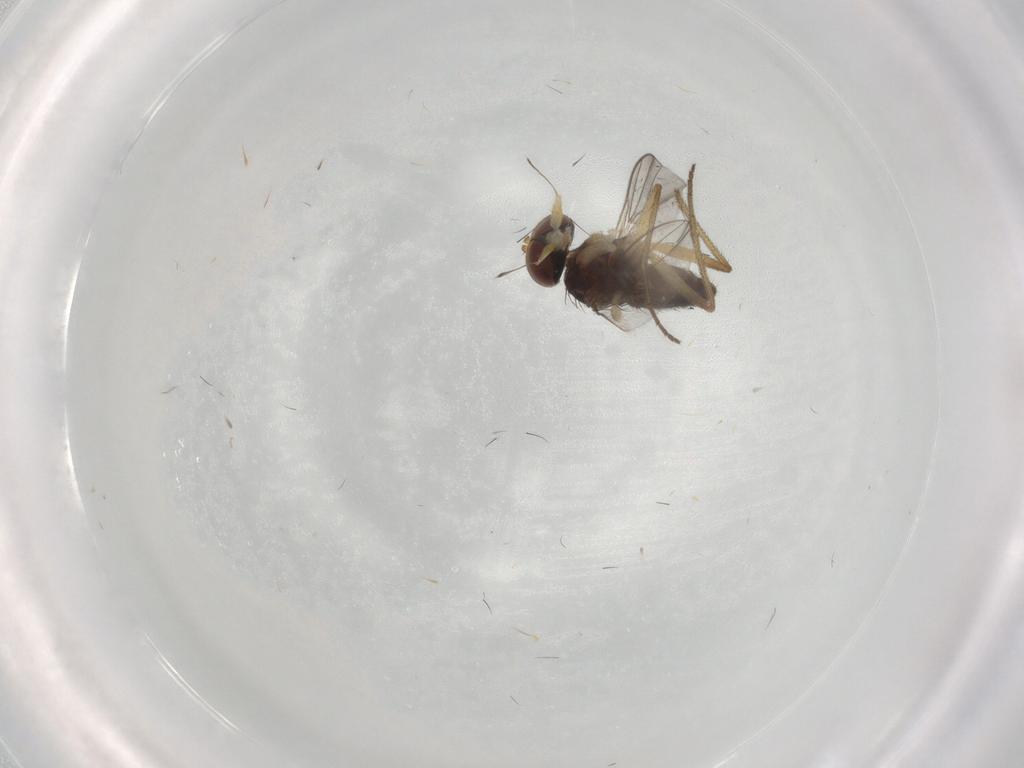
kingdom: Animalia
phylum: Arthropoda
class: Insecta
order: Diptera
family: Dolichopodidae
